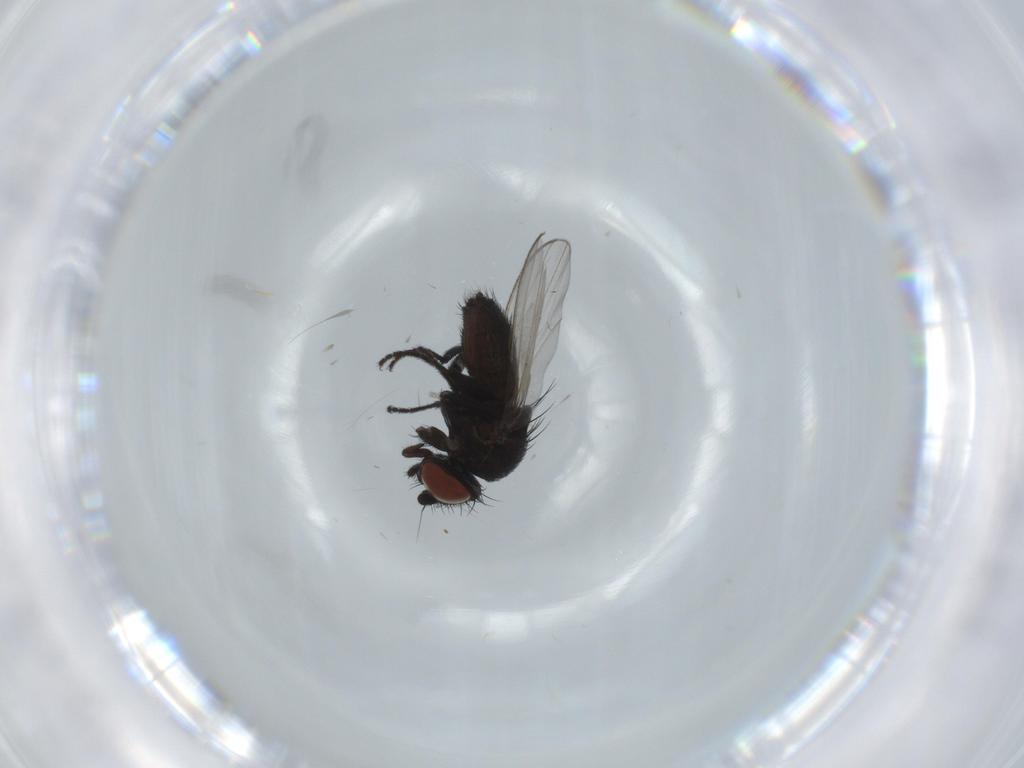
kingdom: Animalia
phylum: Arthropoda
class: Insecta
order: Diptera
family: Milichiidae
